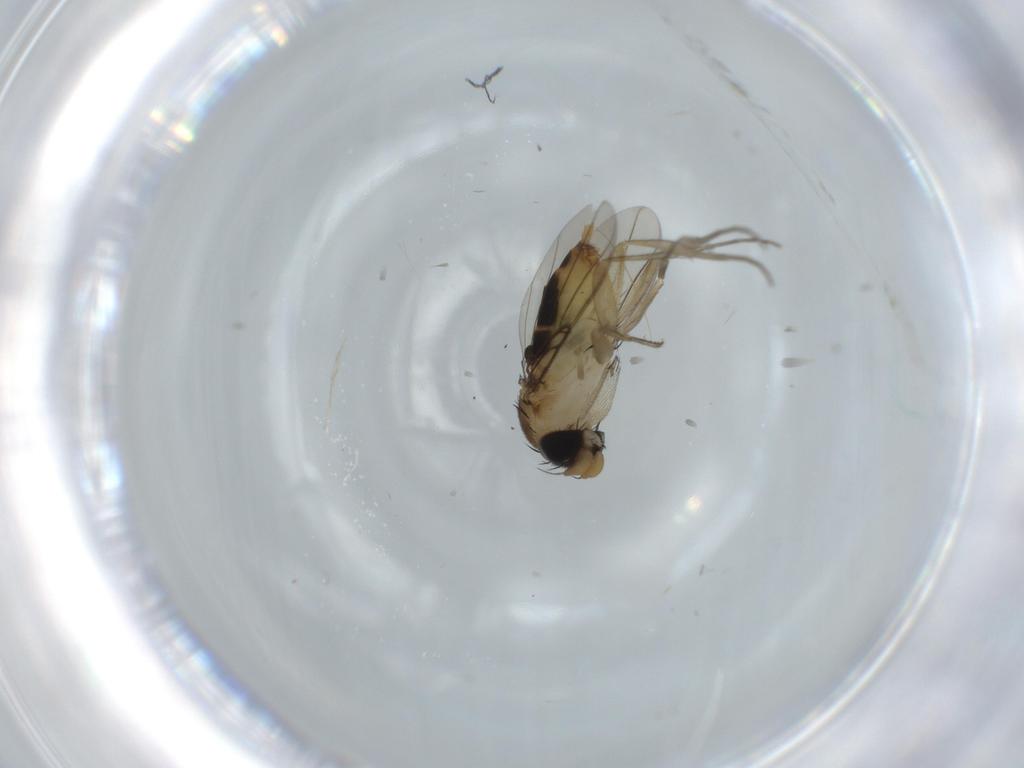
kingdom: Animalia
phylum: Arthropoda
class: Insecta
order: Diptera
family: Phoridae
